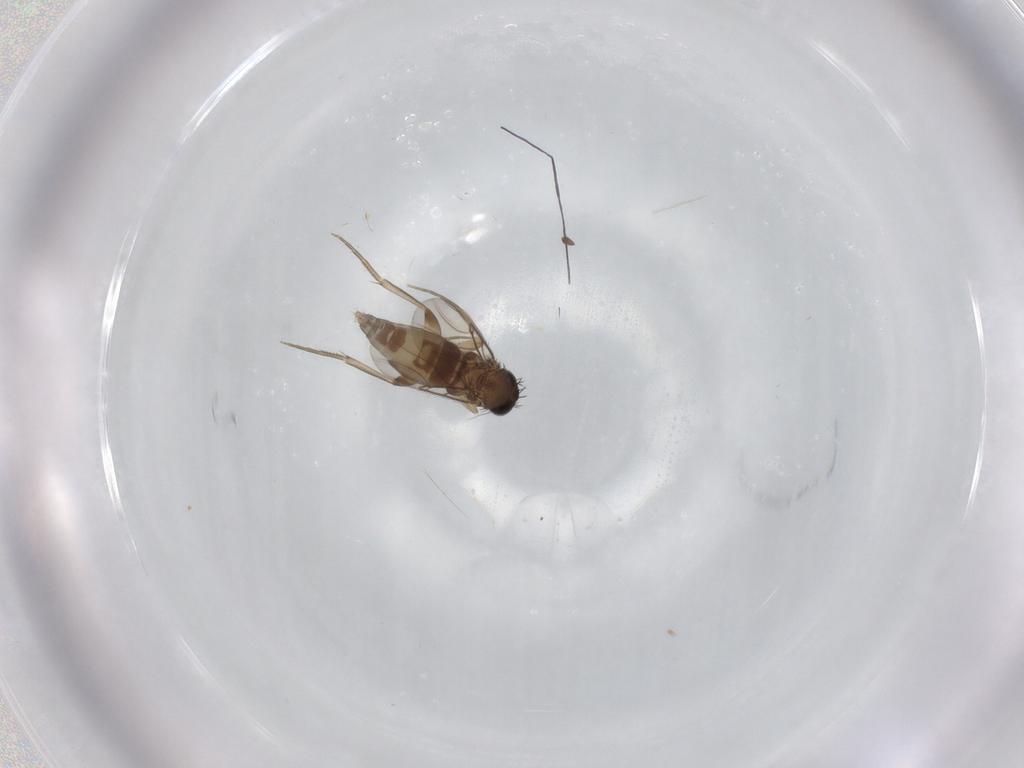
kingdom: Animalia
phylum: Arthropoda
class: Insecta
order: Diptera
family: Phoridae
